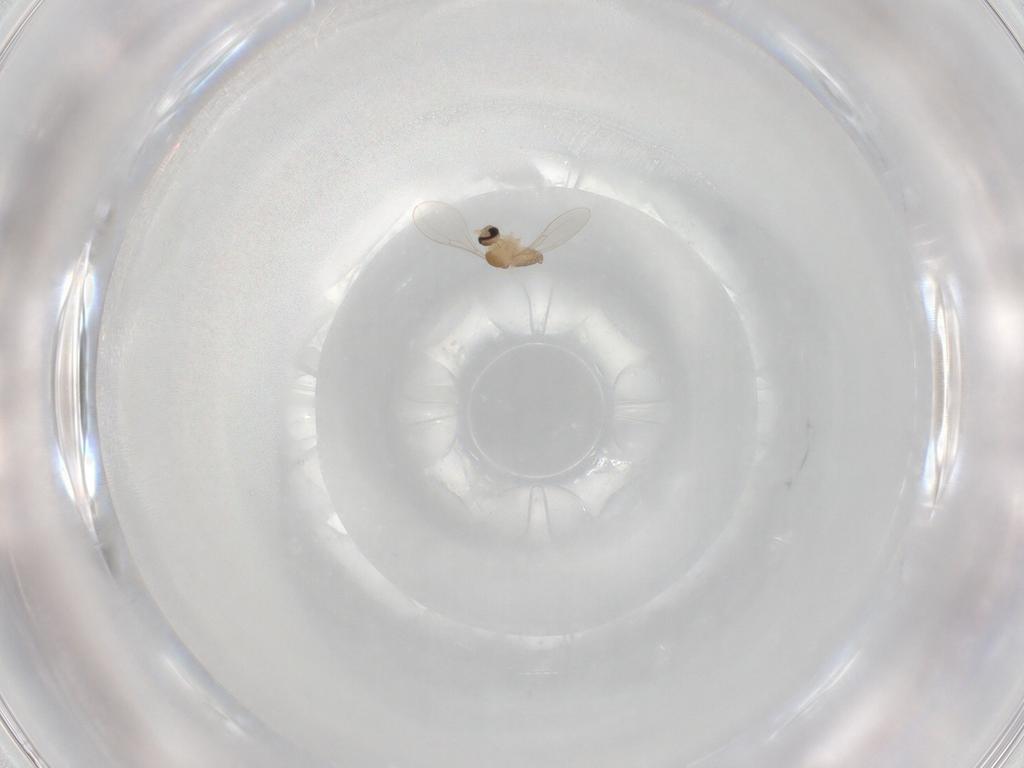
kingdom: Animalia
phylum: Arthropoda
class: Insecta
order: Diptera
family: Cecidomyiidae
